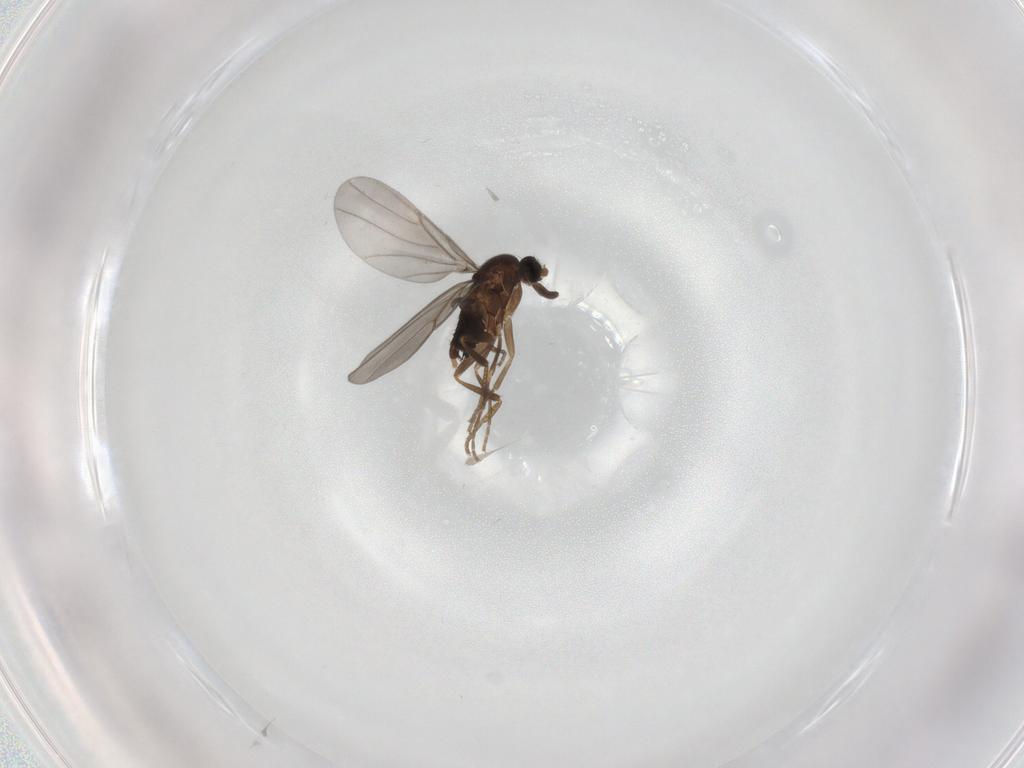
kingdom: Animalia
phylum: Arthropoda
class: Insecta
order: Diptera
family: Phoridae
